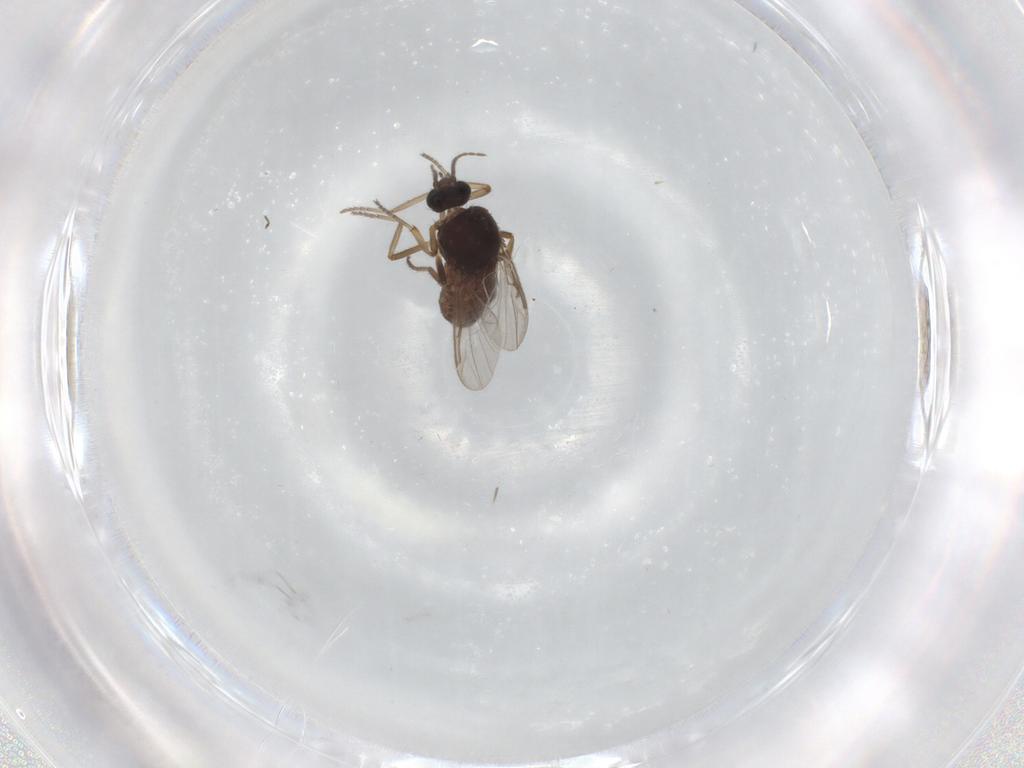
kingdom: Animalia
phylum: Arthropoda
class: Insecta
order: Diptera
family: Ceratopogonidae
